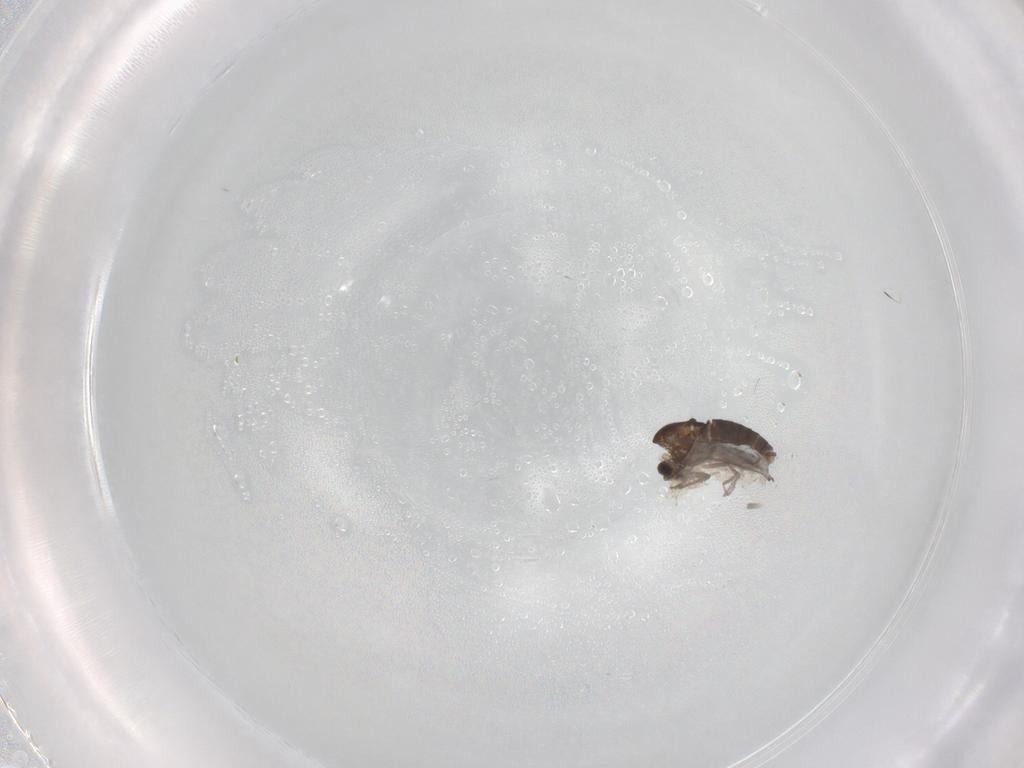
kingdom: Animalia
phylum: Arthropoda
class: Insecta
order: Diptera
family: Chironomidae
